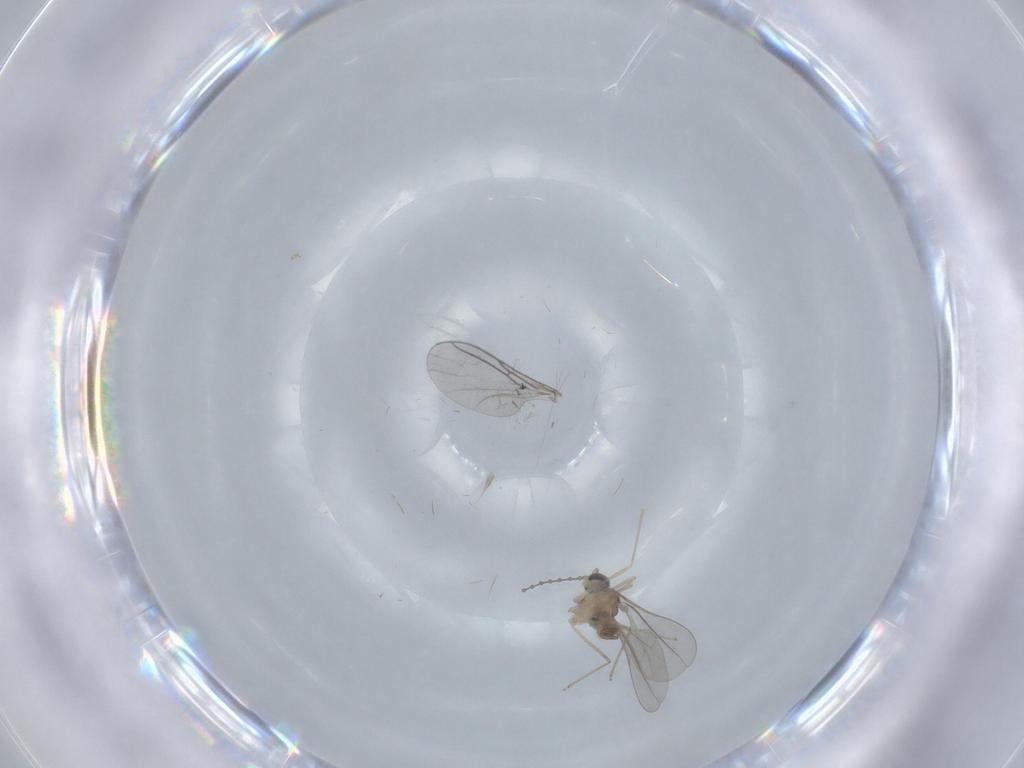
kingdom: Animalia
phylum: Arthropoda
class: Insecta
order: Diptera
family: Cecidomyiidae
